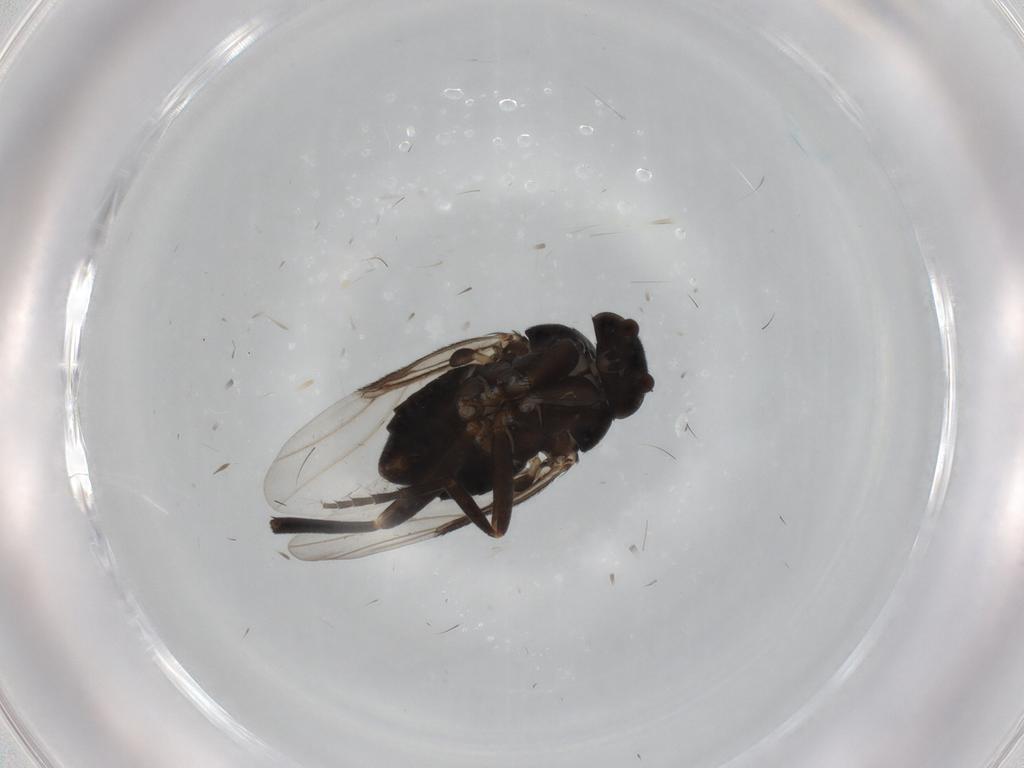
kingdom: Animalia
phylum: Arthropoda
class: Insecta
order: Diptera
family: Phoridae
